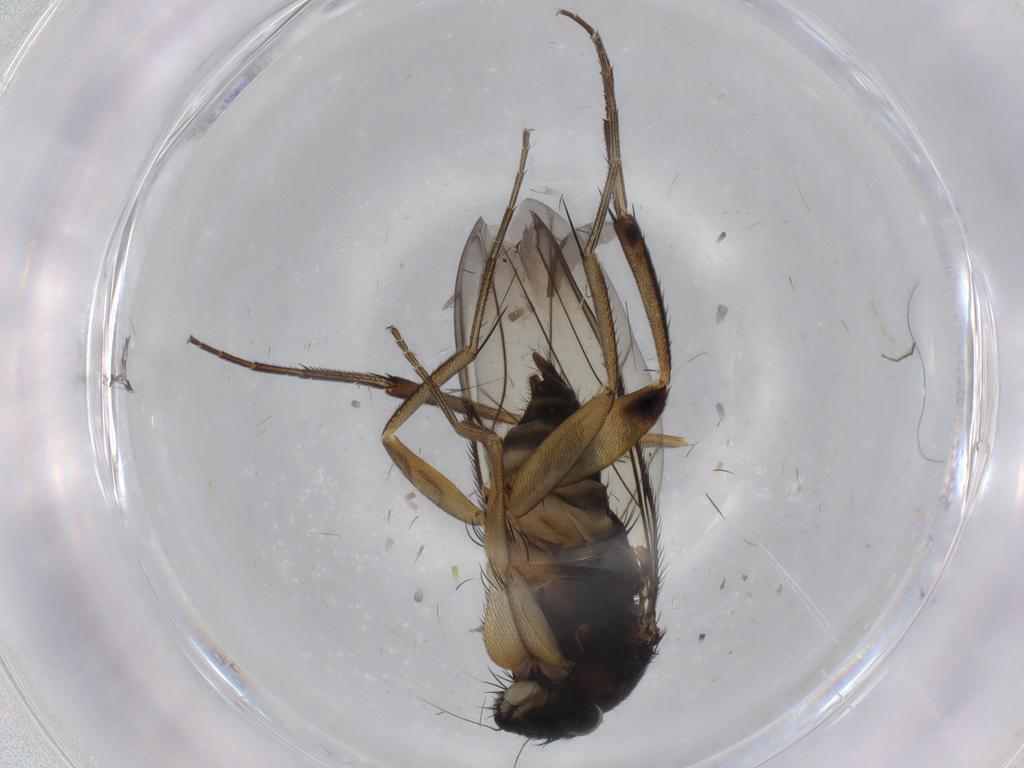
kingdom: Animalia
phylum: Arthropoda
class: Insecta
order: Diptera
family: Phoridae
